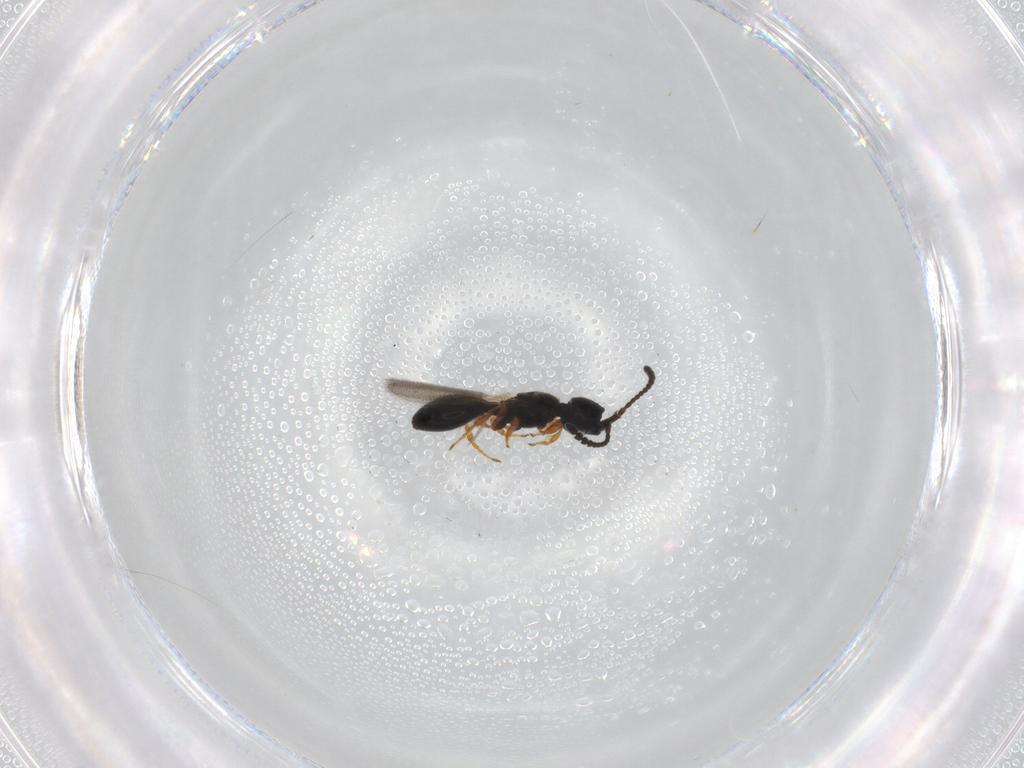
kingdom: Animalia
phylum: Arthropoda
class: Insecta
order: Hymenoptera
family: Diapriidae
